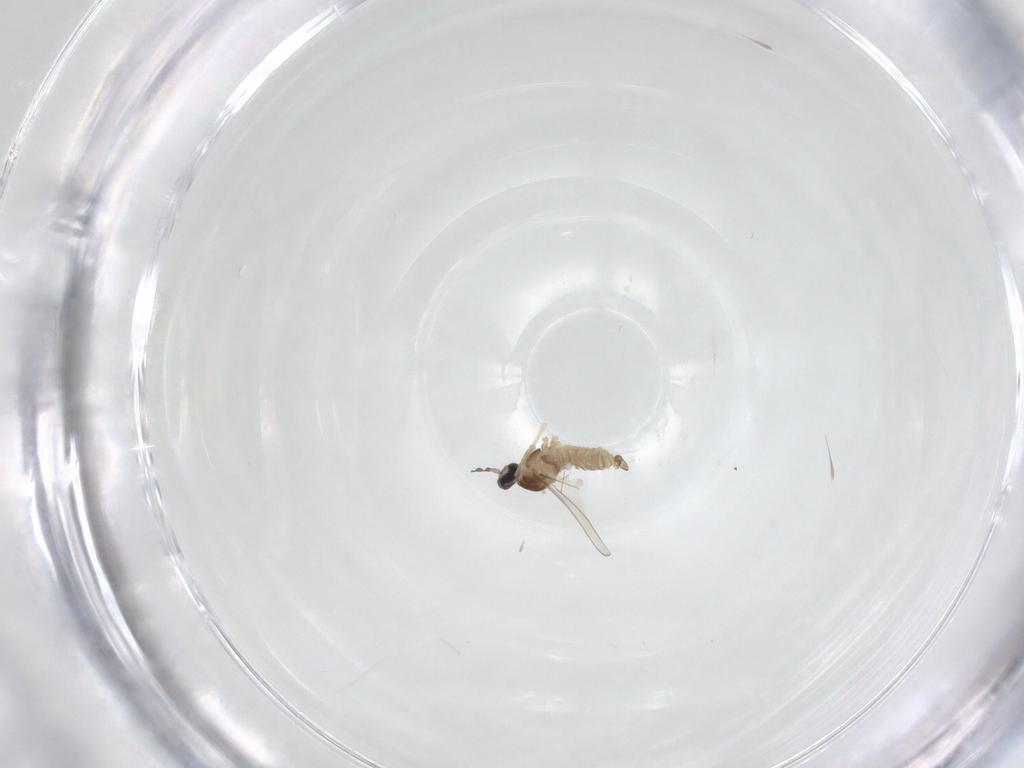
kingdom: Animalia
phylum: Arthropoda
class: Insecta
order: Diptera
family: Cecidomyiidae
